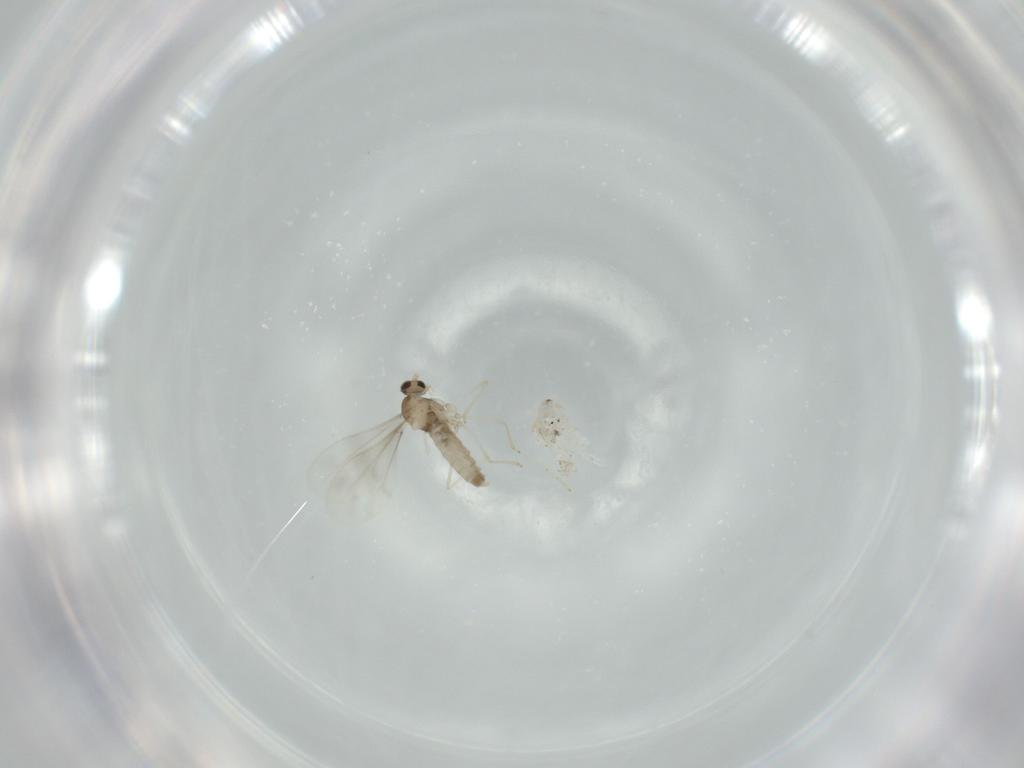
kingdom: Animalia
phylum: Arthropoda
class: Insecta
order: Diptera
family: Cecidomyiidae
